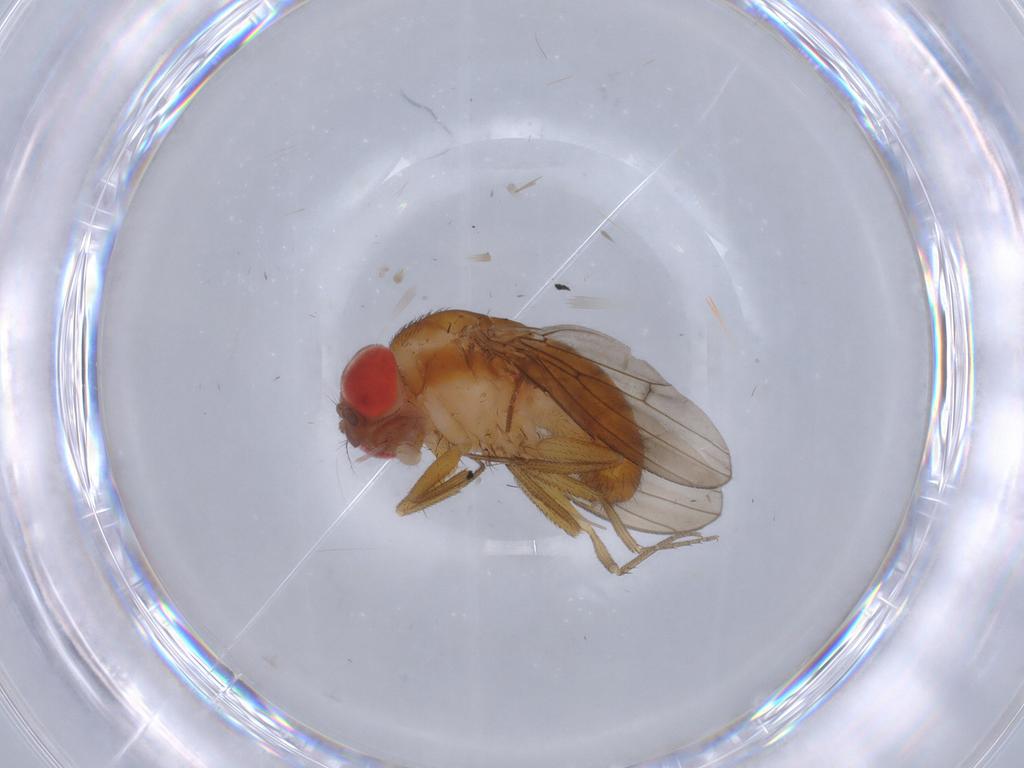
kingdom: Animalia
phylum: Arthropoda
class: Insecta
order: Diptera
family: Drosophilidae
